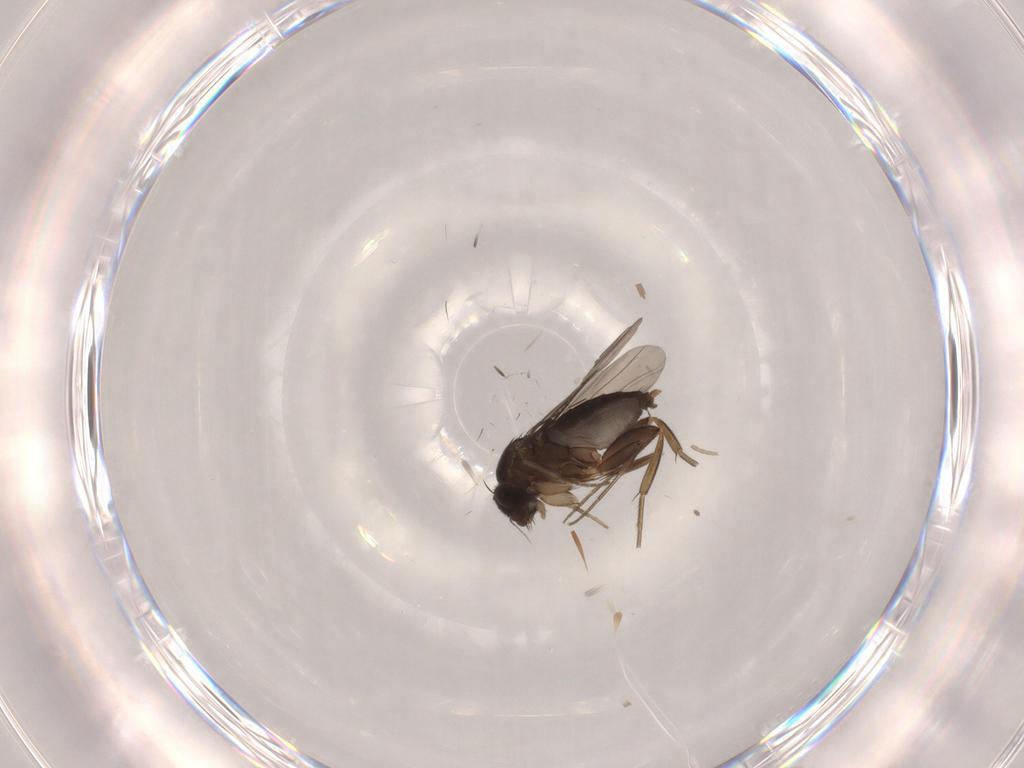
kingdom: Animalia
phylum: Arthropoda
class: Insecta
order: Diptera
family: Phoridae
